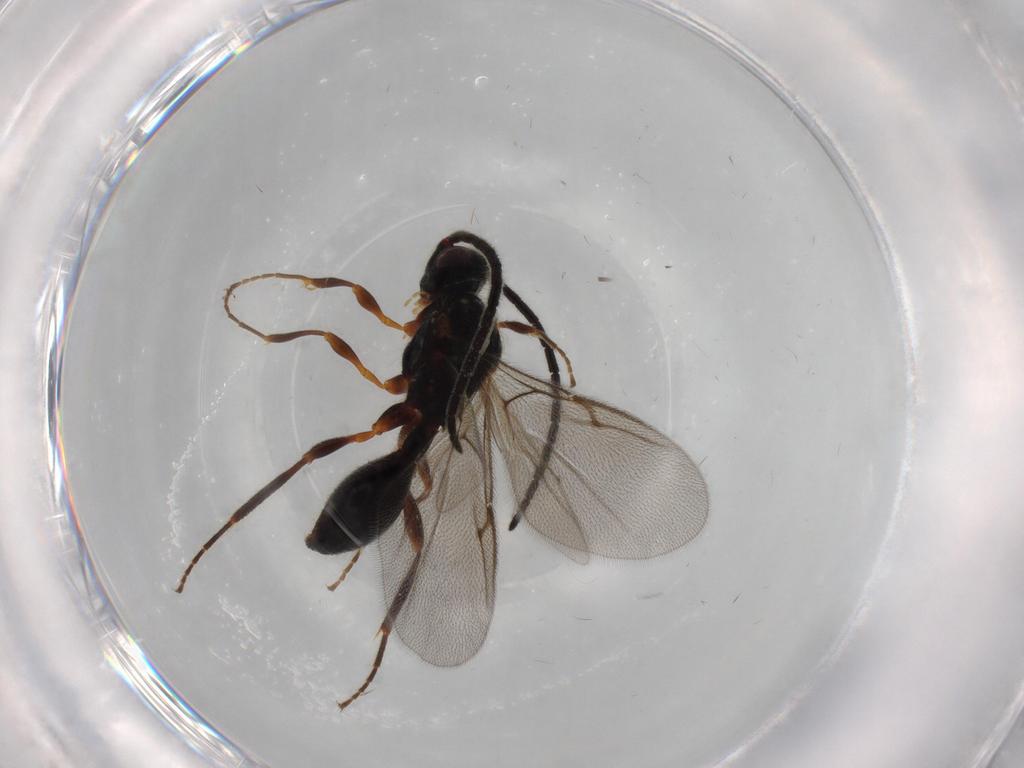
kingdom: Animalia
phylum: Arthropoda
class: Insecta
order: Hymenoptera
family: Diapriidae
